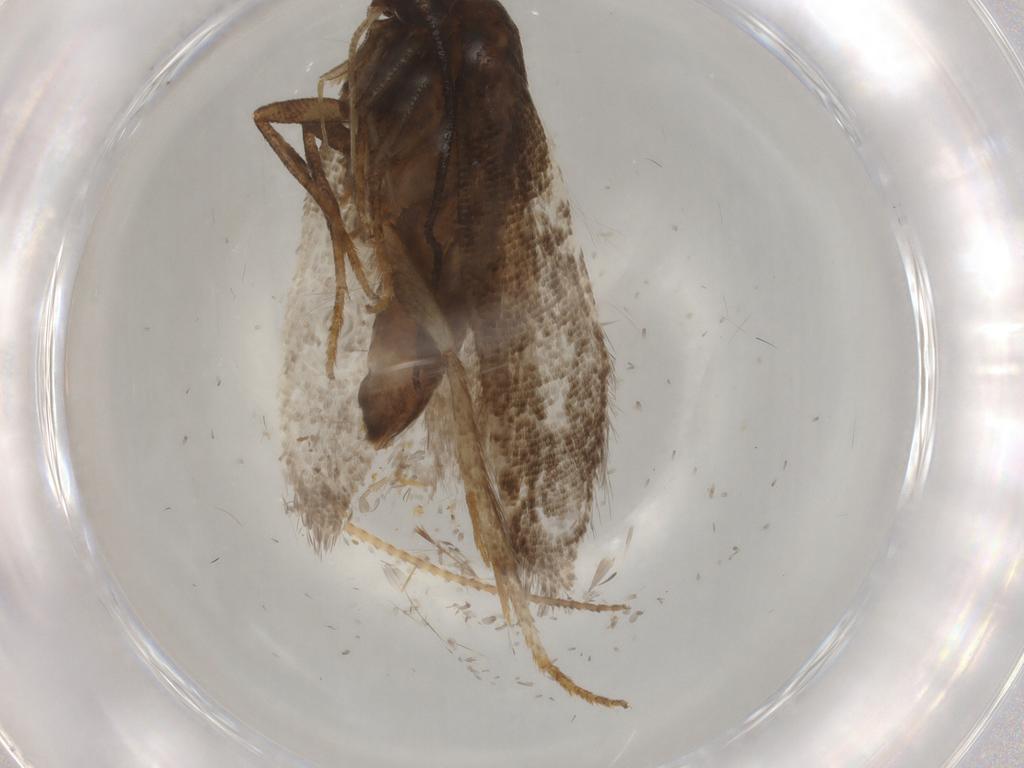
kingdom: Animalia
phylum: Arthropoda
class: Insecta
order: Lepidoptera
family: Gelechiidae
